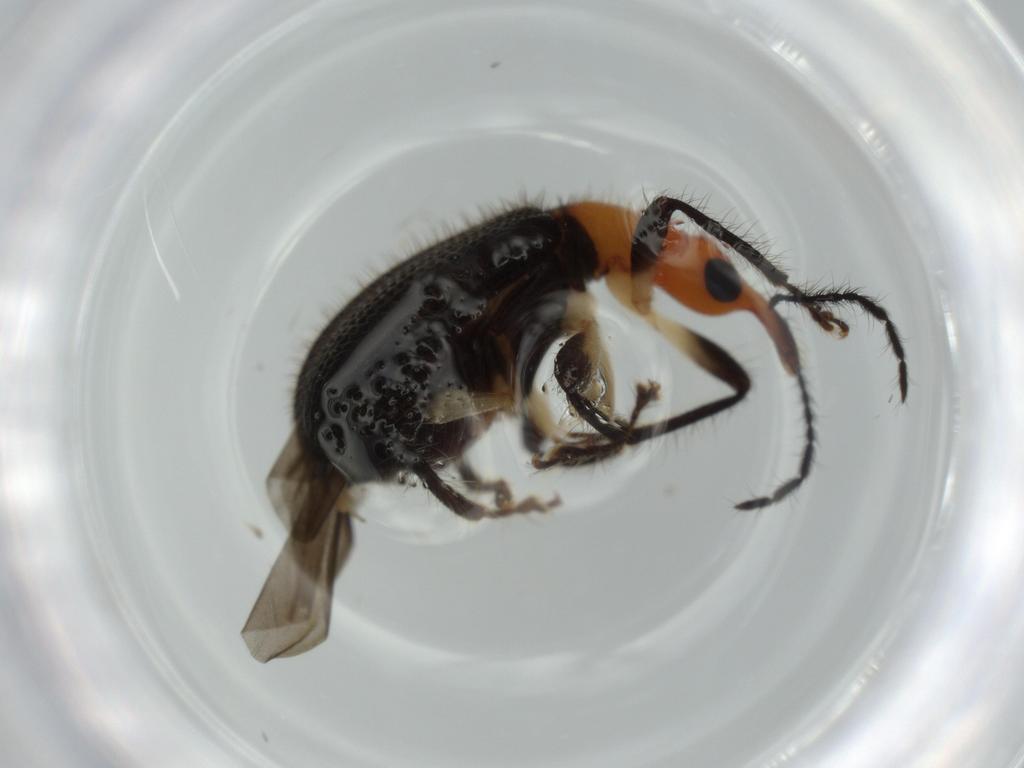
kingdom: Animalia
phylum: Arthropoda
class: Insecta
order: Coleoptera
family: Attelabidae
